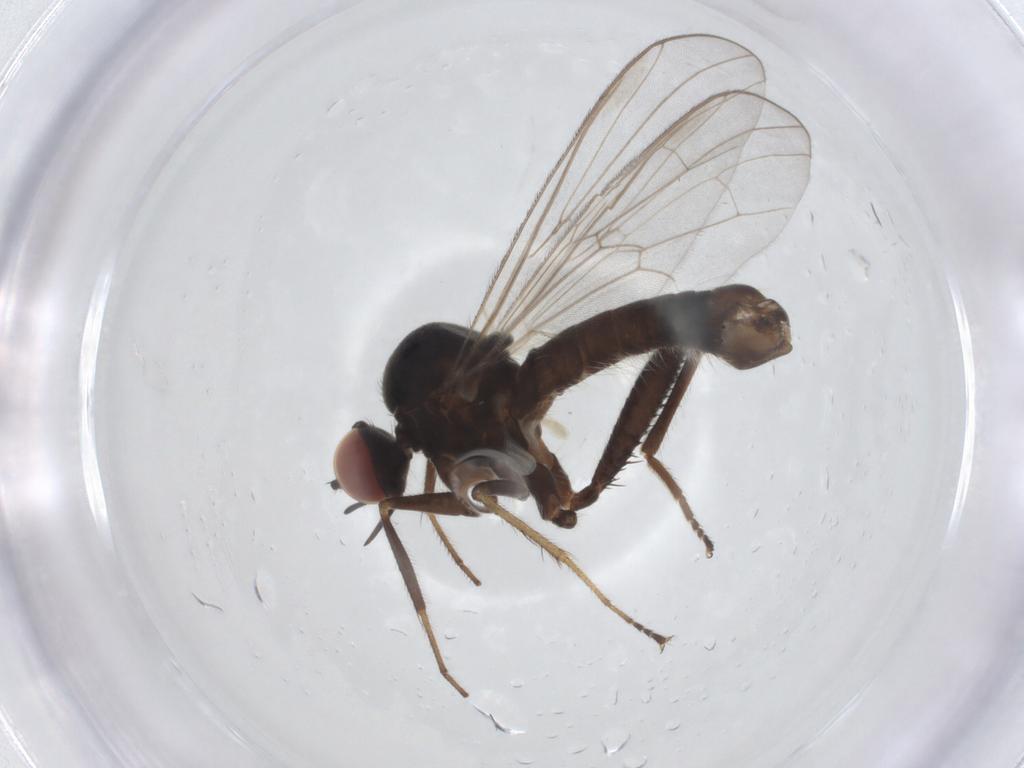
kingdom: Animalia
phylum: Arthropoda
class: Insecta
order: Diptera
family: Hybotidae
